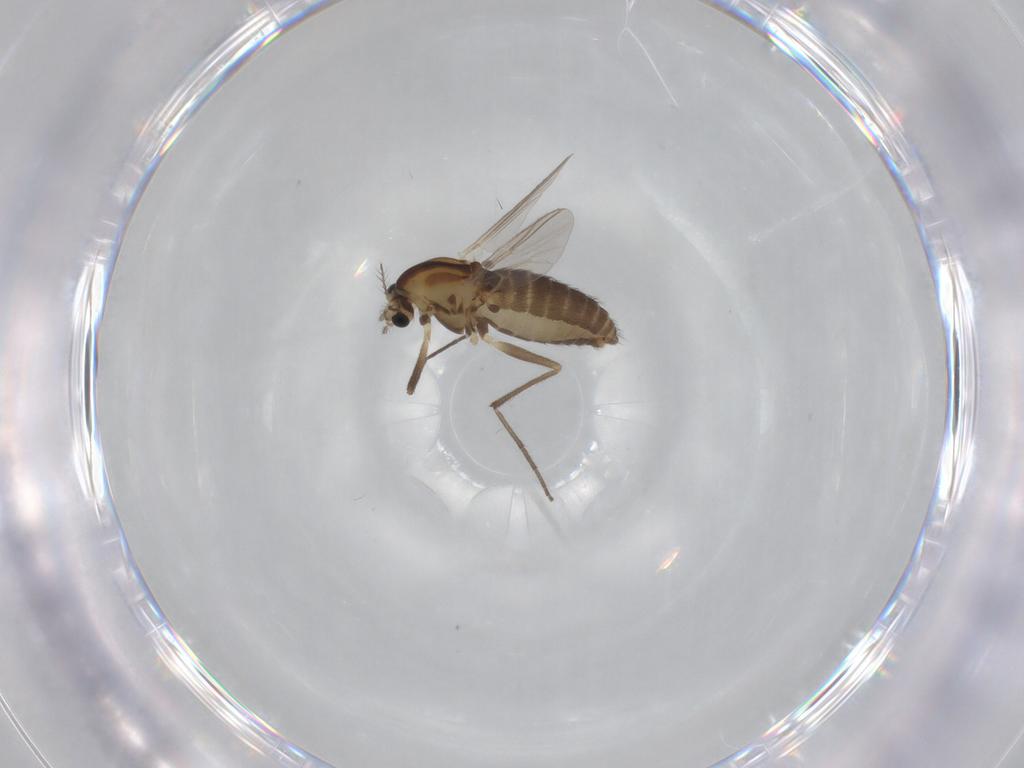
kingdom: Animalia
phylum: Arthropoda
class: Insecta
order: Diptera
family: Chironomidae
